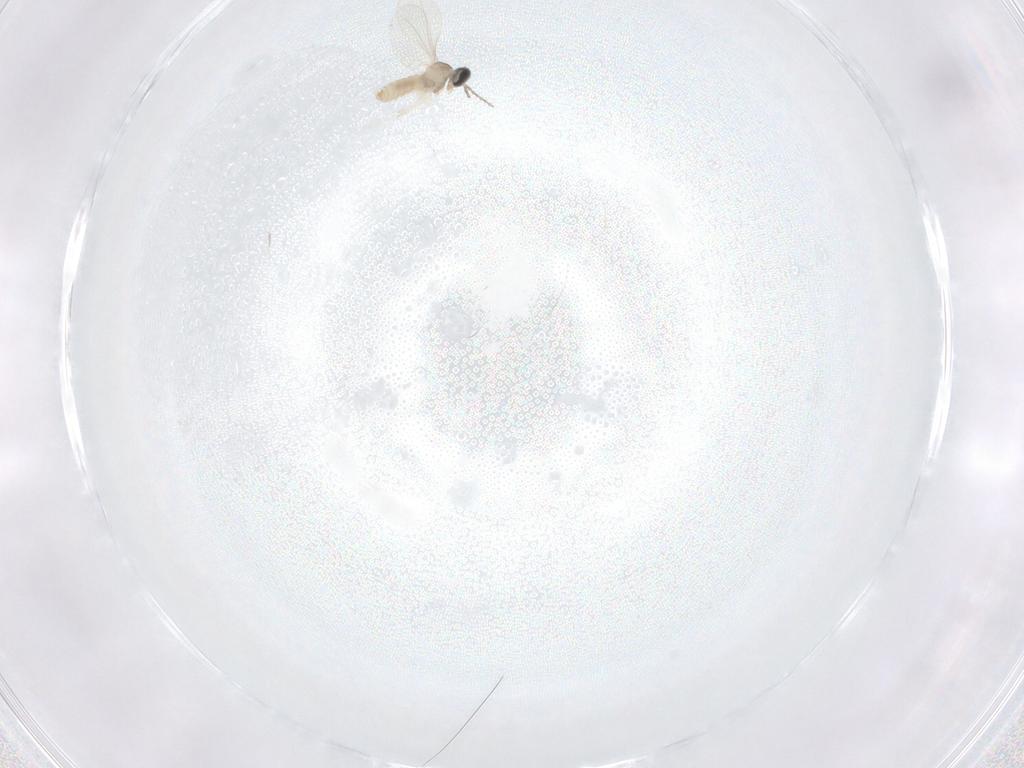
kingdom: Animalia
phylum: Arthropoda
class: Insecta
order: Diptera
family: Cecidomyiidae
